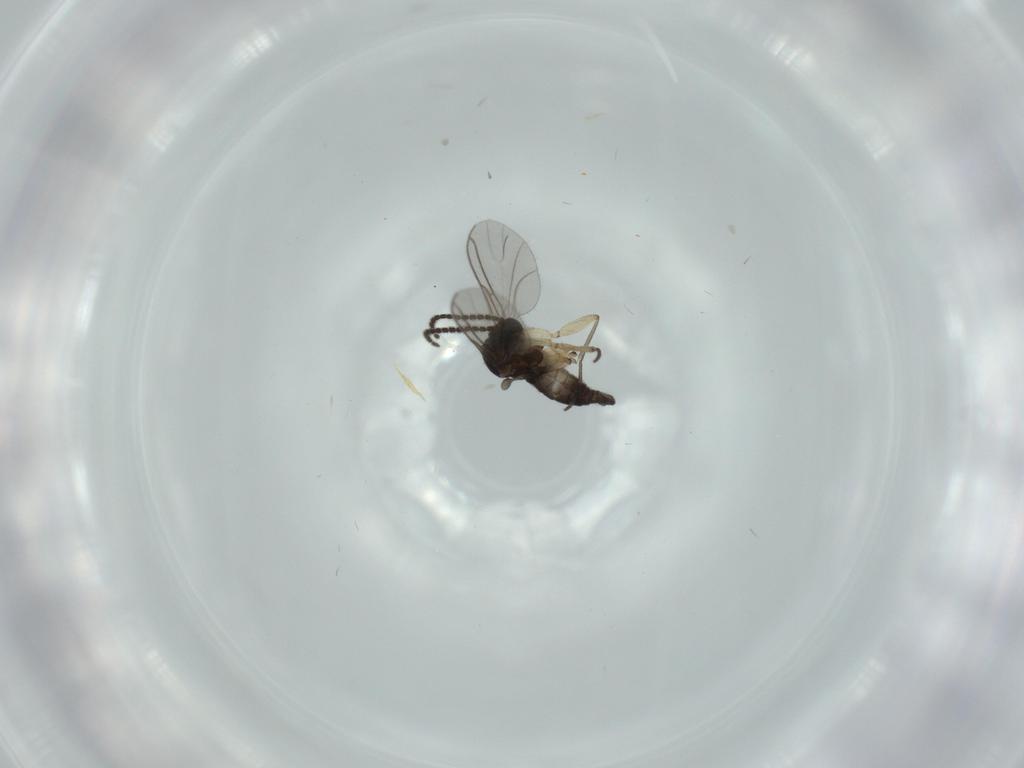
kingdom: Animalia
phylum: Arthropoda
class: Insecta
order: Diptera
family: Sciaridae
